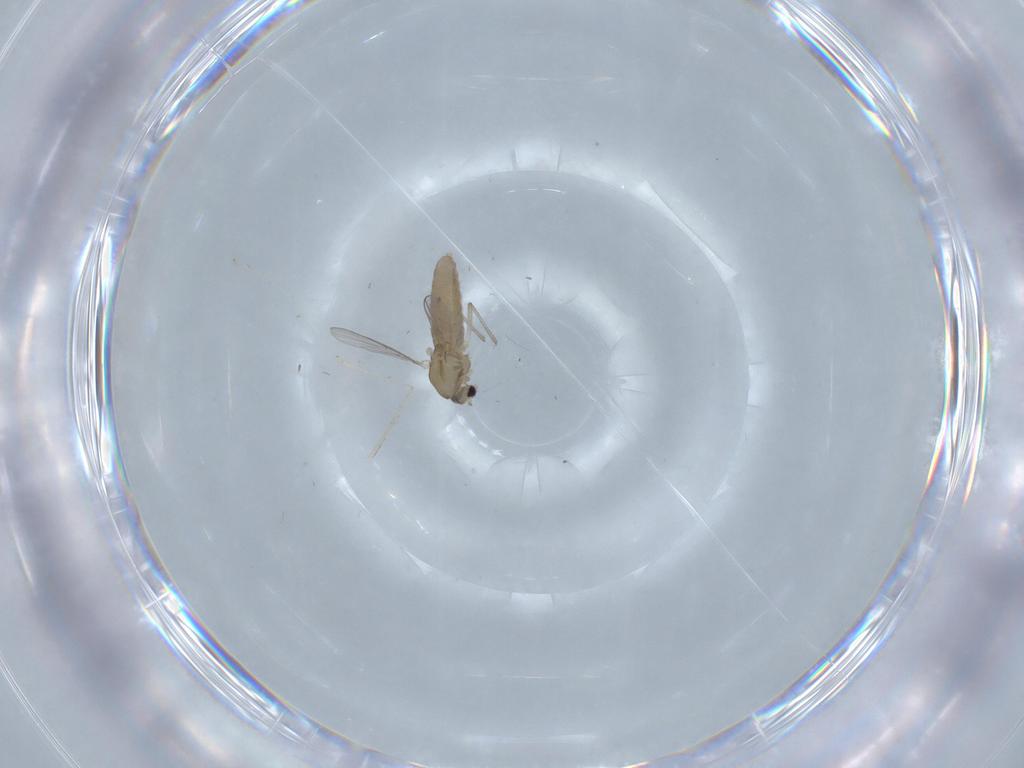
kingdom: Animalia
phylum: Arthropoda
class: Insecta
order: Diptera
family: Chironomidae
